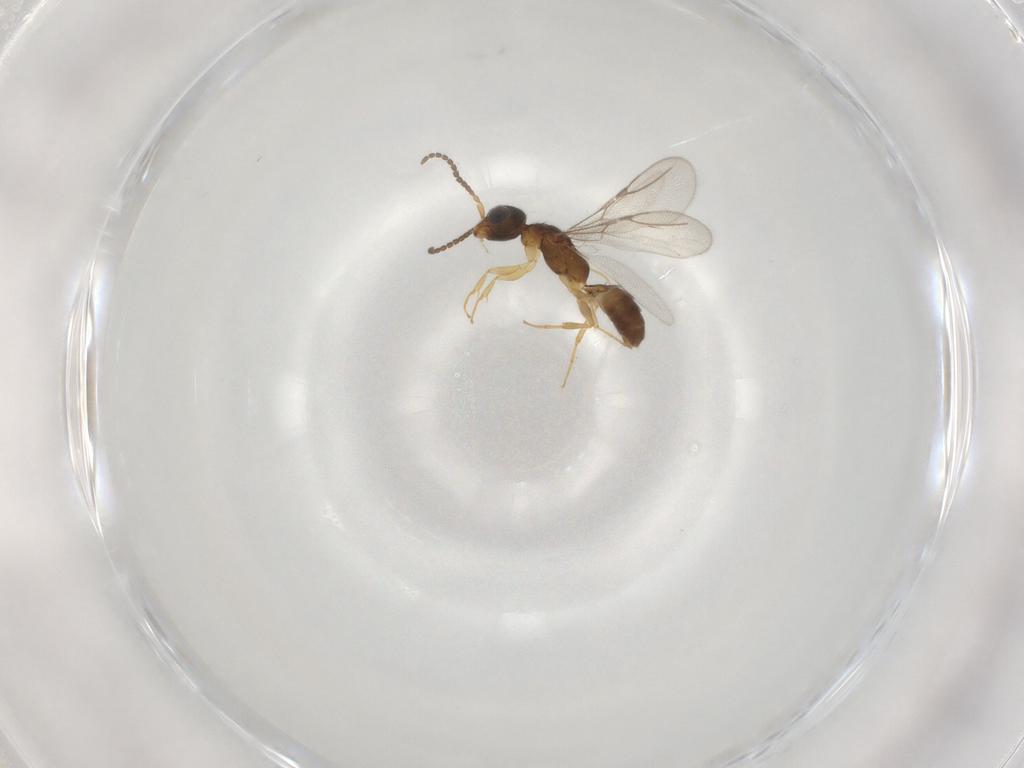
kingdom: Animalia
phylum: Arthropoda
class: Insecta
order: Hymenoptera
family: Bethylidae
